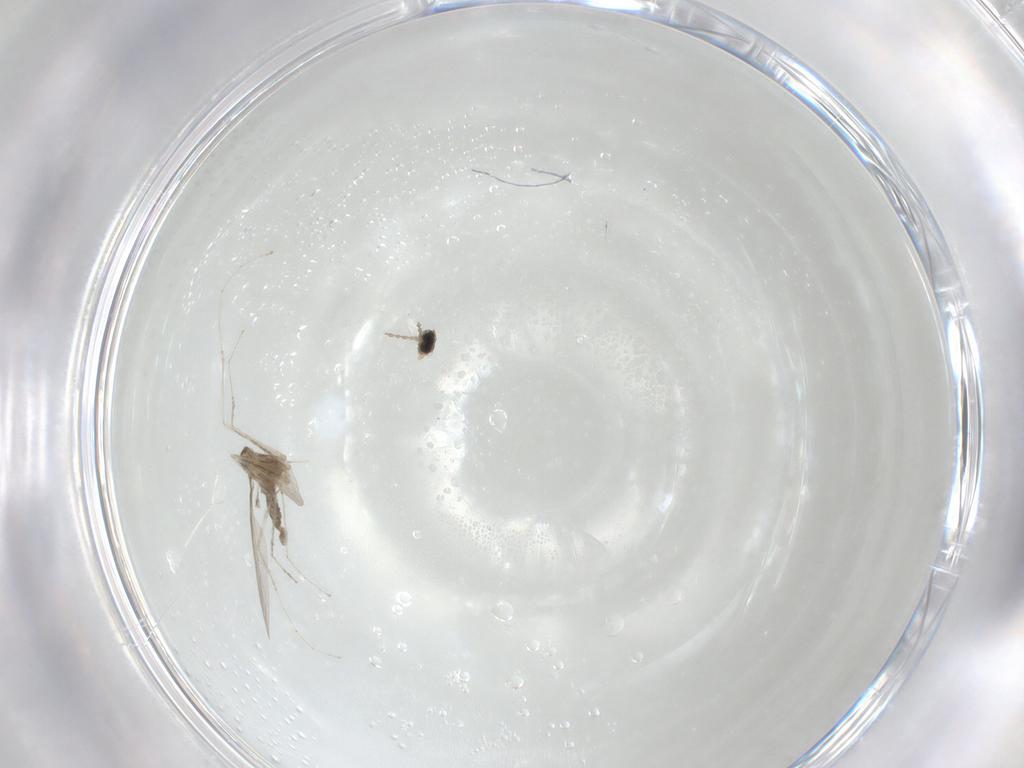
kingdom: Animalia
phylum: Arthropoda
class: Insecta
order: Diptera
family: Cecidomyiidae
